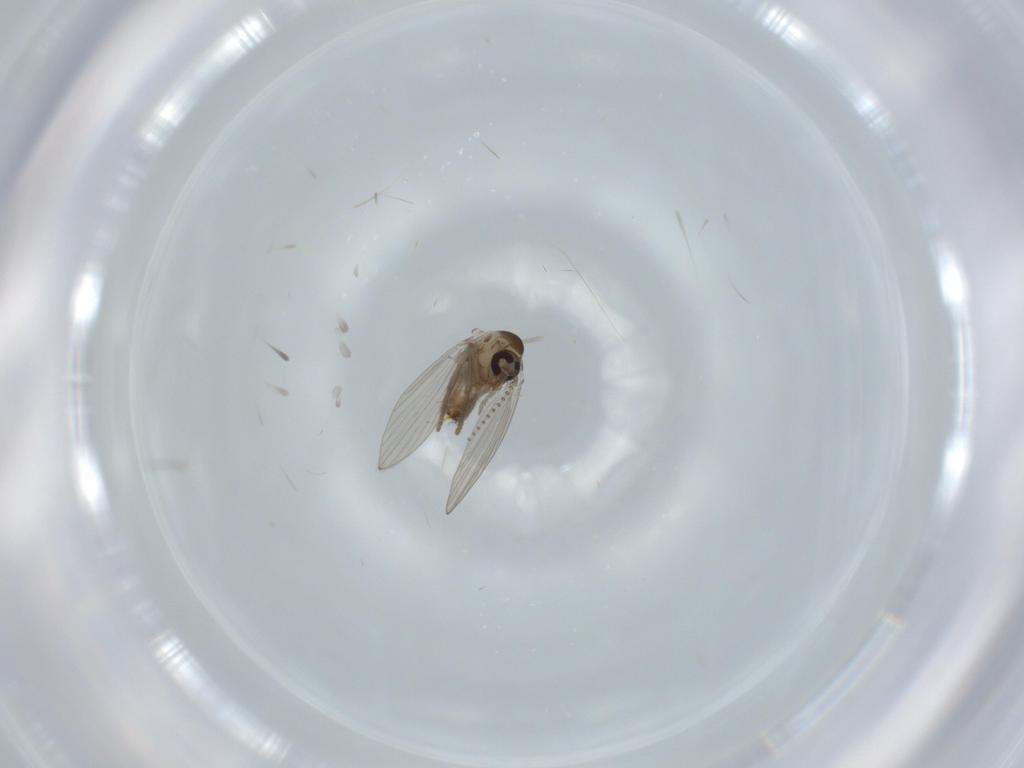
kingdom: Animalia
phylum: Arthropoda
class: Insecta
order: Diptera
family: Psychodidae
